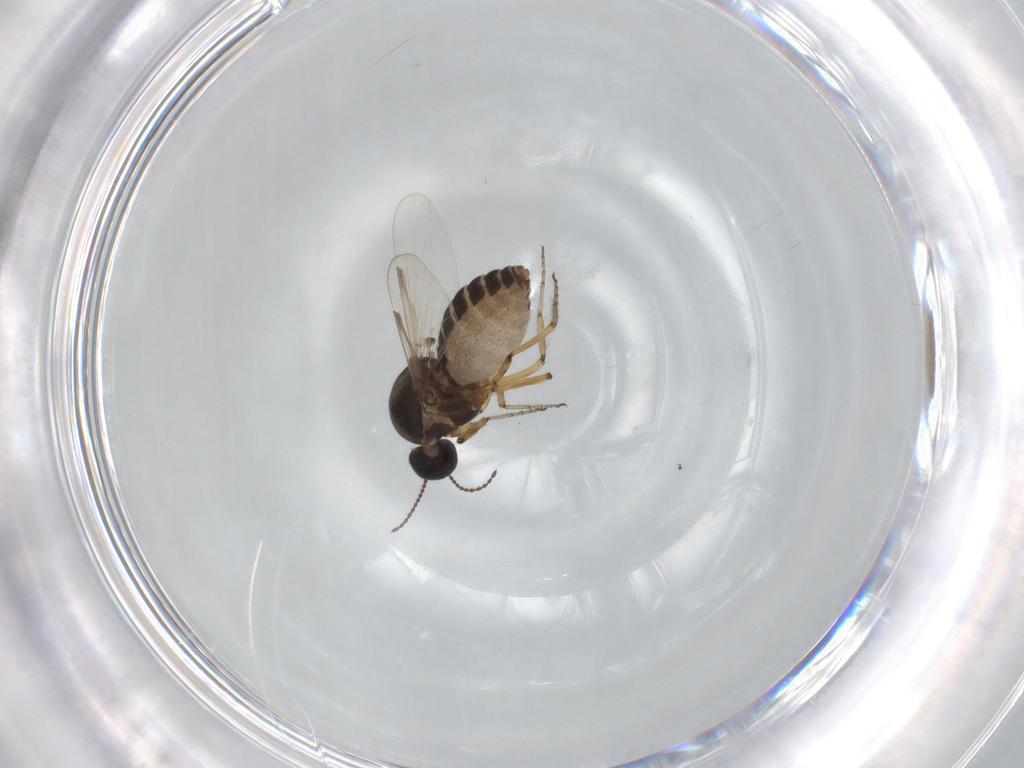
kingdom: Animalia
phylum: Arthropoda
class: Insecta
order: Diptera
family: Ceratopogonidae
